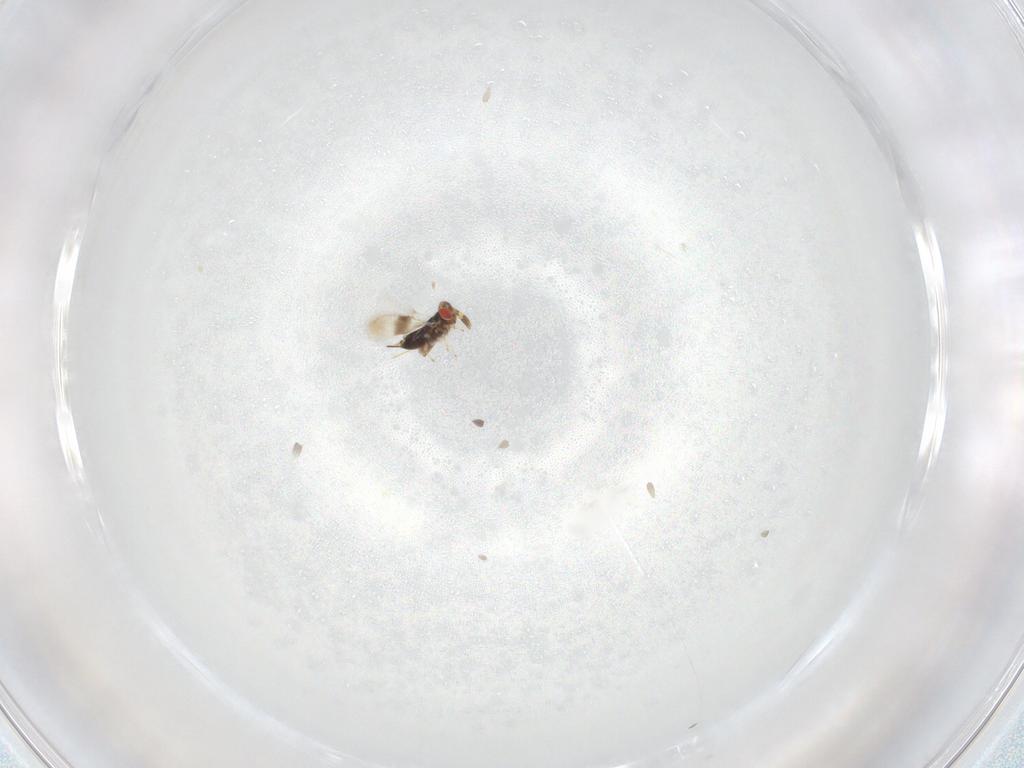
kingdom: Animalia
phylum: Arthropoda
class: Insecta
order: Hymenoptera
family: Azotidae
